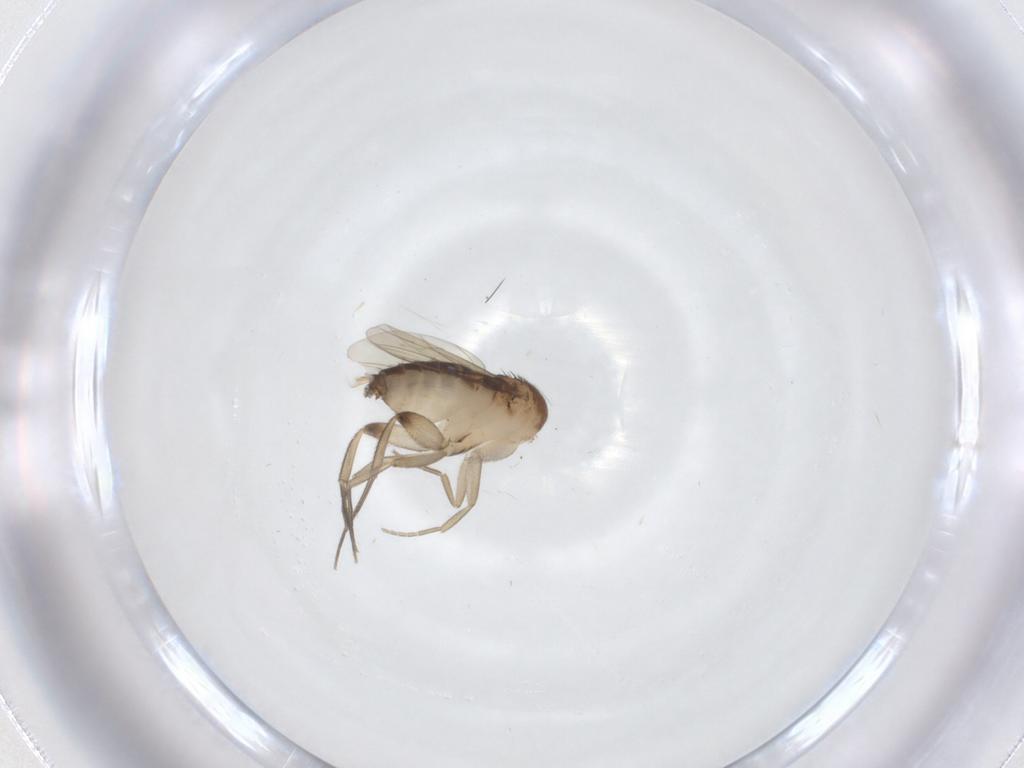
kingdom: Animalia
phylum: Arthropoda
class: Insecta
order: Diptera
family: Phoridae
